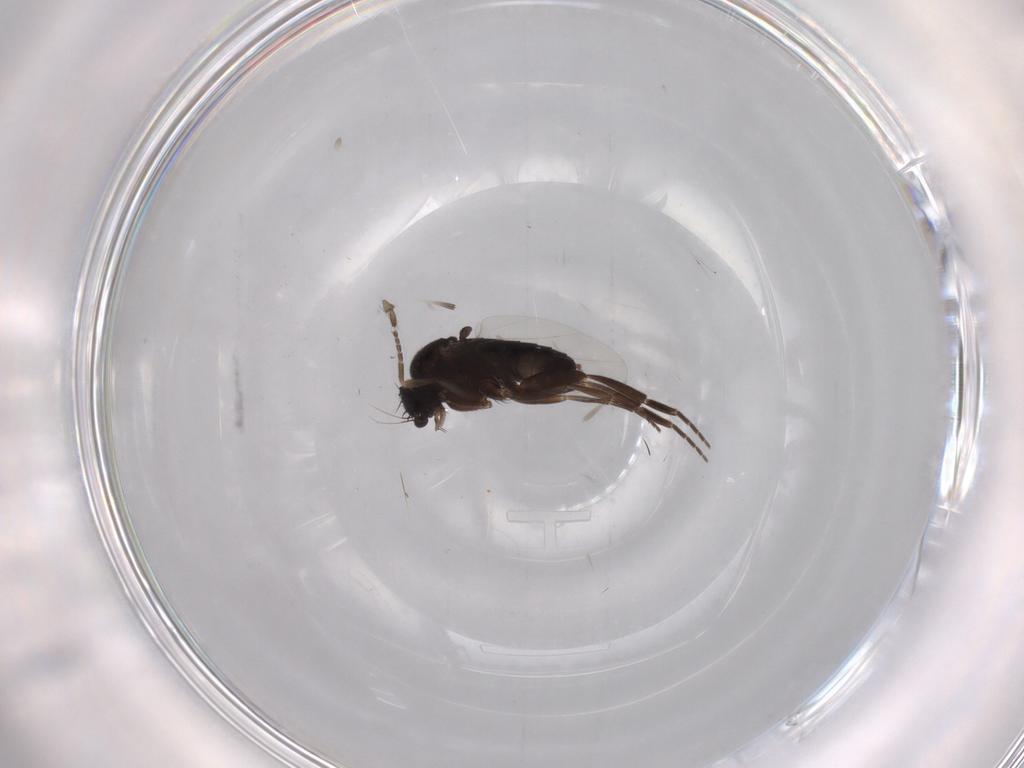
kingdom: Animalia
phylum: Arthropoda
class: Insecta
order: Diptera
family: Phoridae
